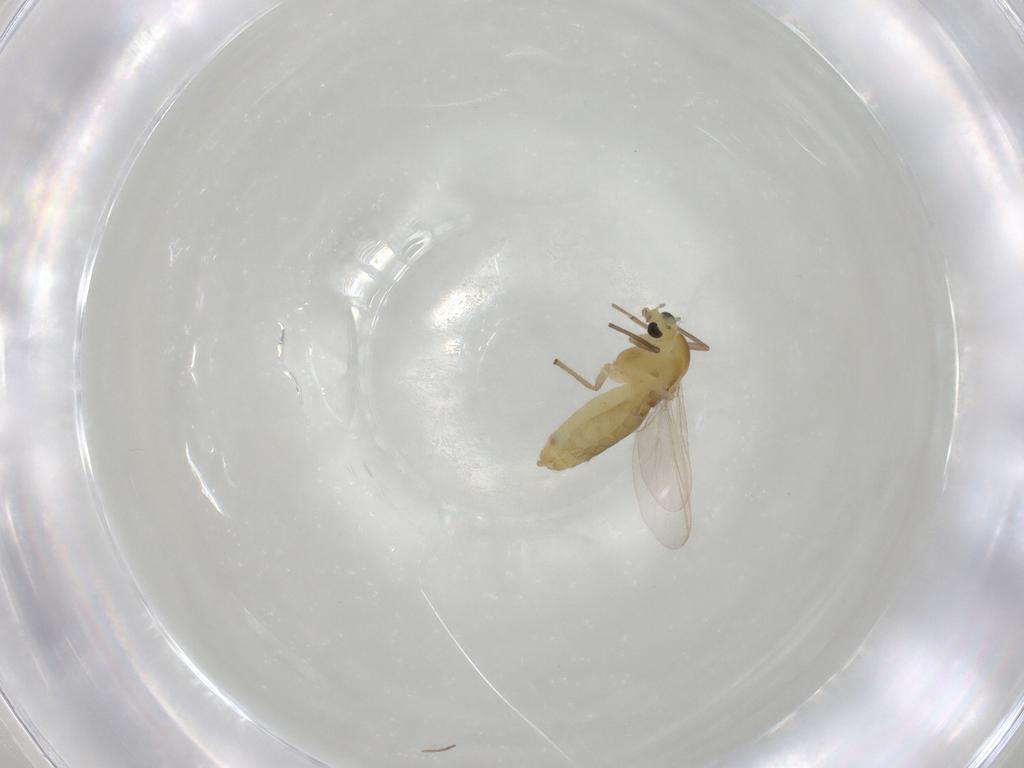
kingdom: Animalia
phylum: Arthropoda
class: Insecta
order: Diptera
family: Chironomidae
